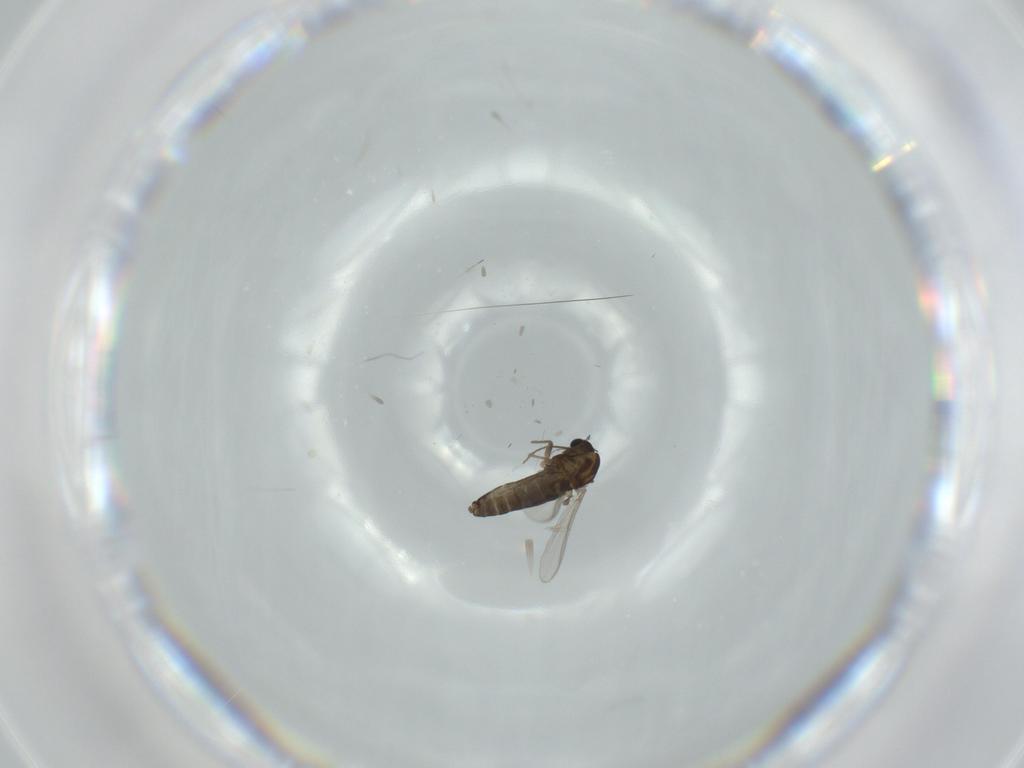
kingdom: Animalia
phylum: Arthropoda
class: Insecta
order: Diptera
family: Chironomidae
